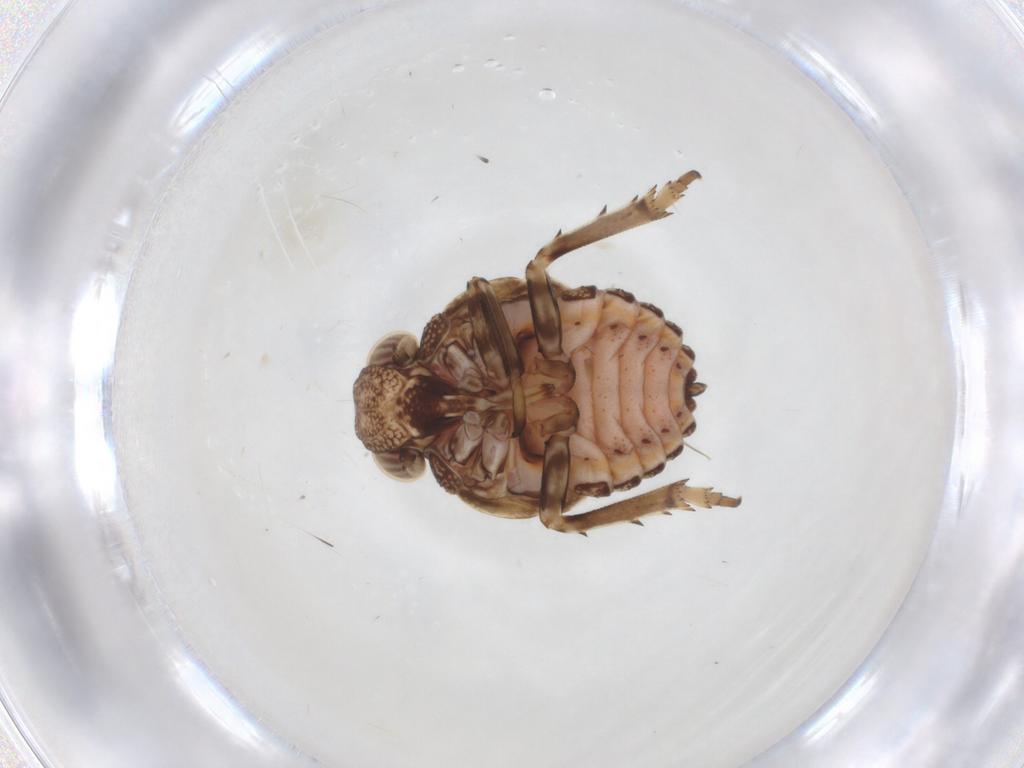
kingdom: Animalia
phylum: Arthropoda
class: Insecta
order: Hemiptera
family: Issidae
